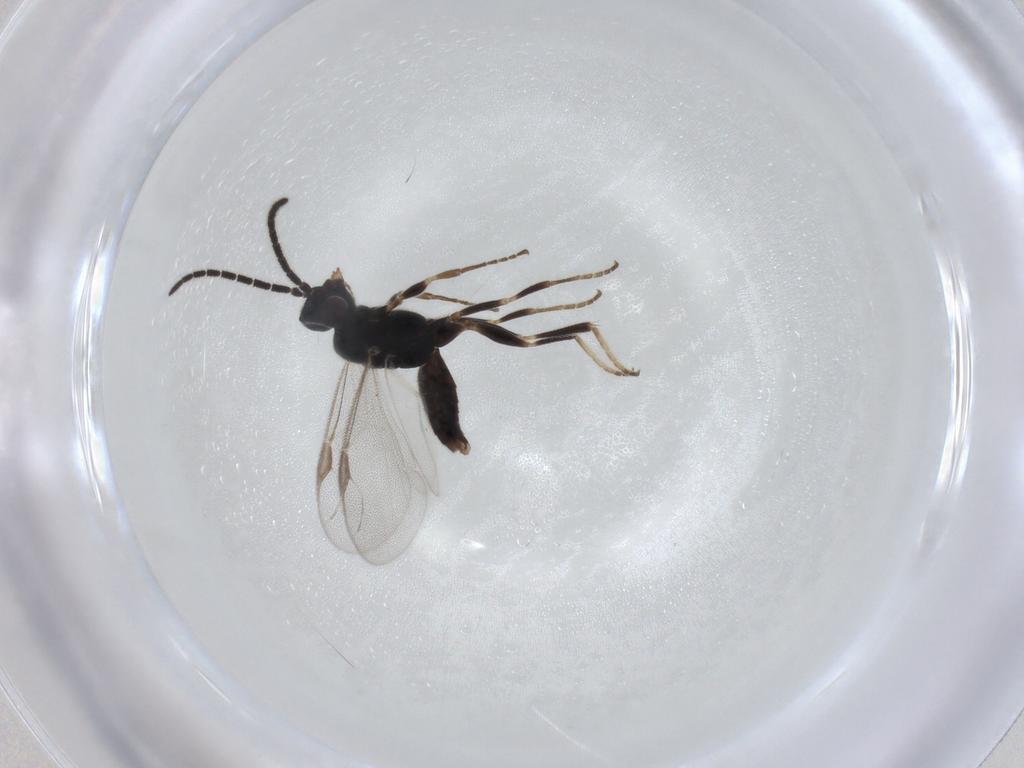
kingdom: Animalia
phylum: Arthropoda
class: Insecta
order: Hymenoptera
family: Dryinidae
